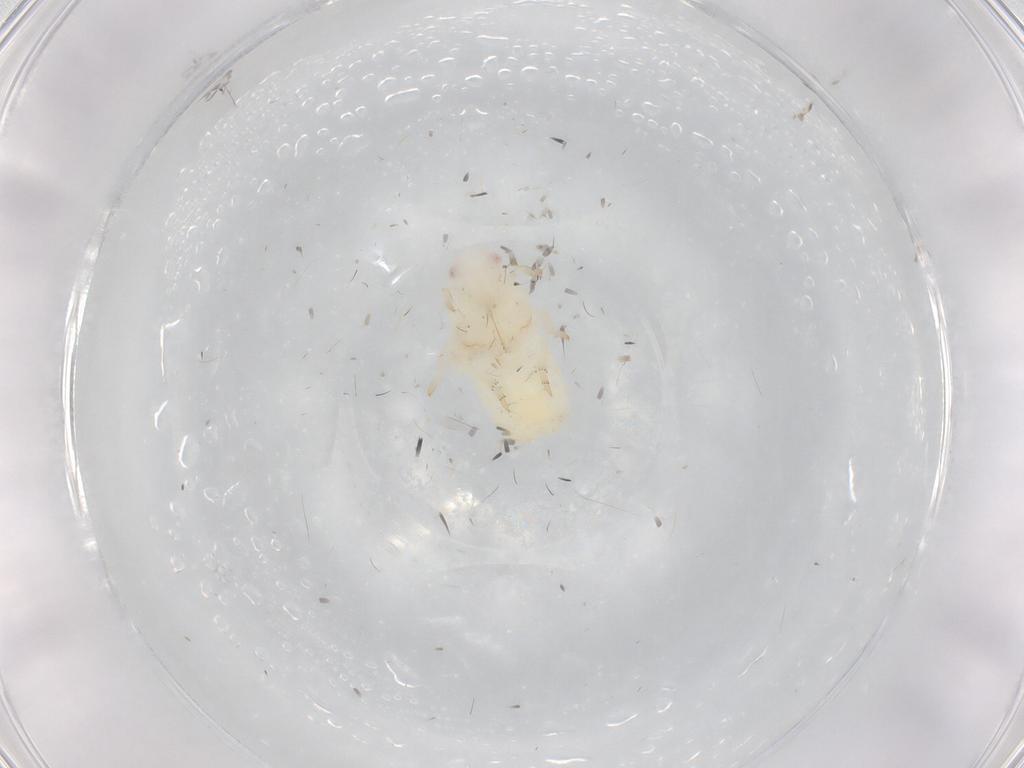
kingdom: Animalia
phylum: Arthropoda
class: Insecta
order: Hemiptera
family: Flatidae
